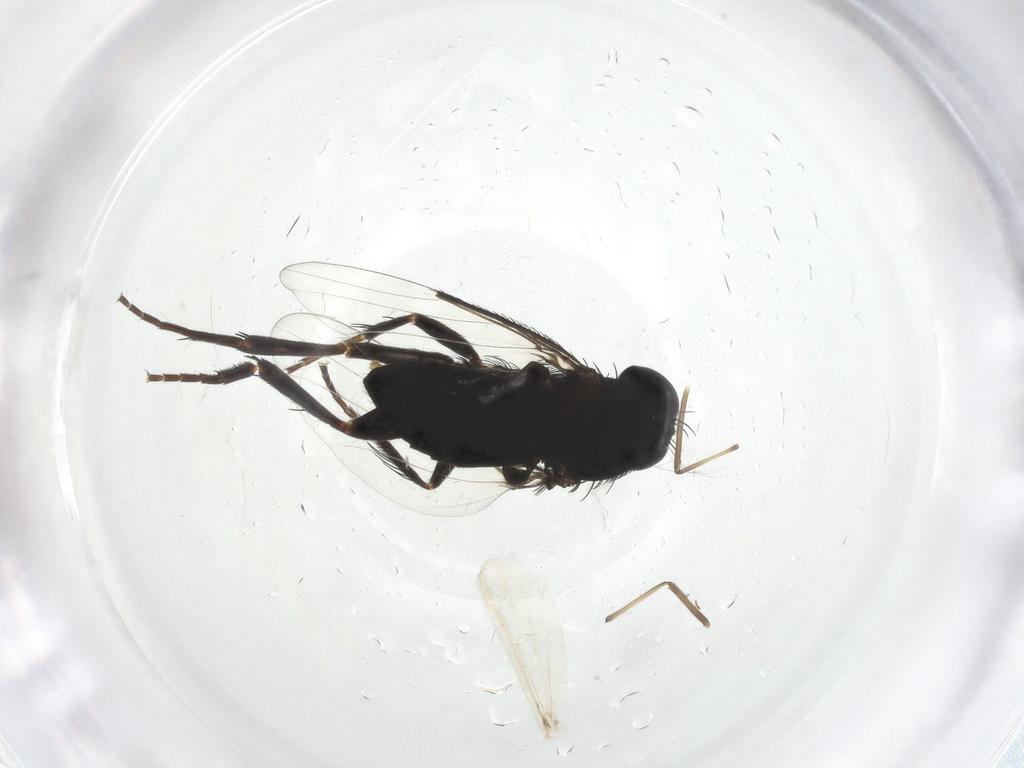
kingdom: Animalia
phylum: Arthropoda
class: Insecta
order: Diptera
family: Phoridae
